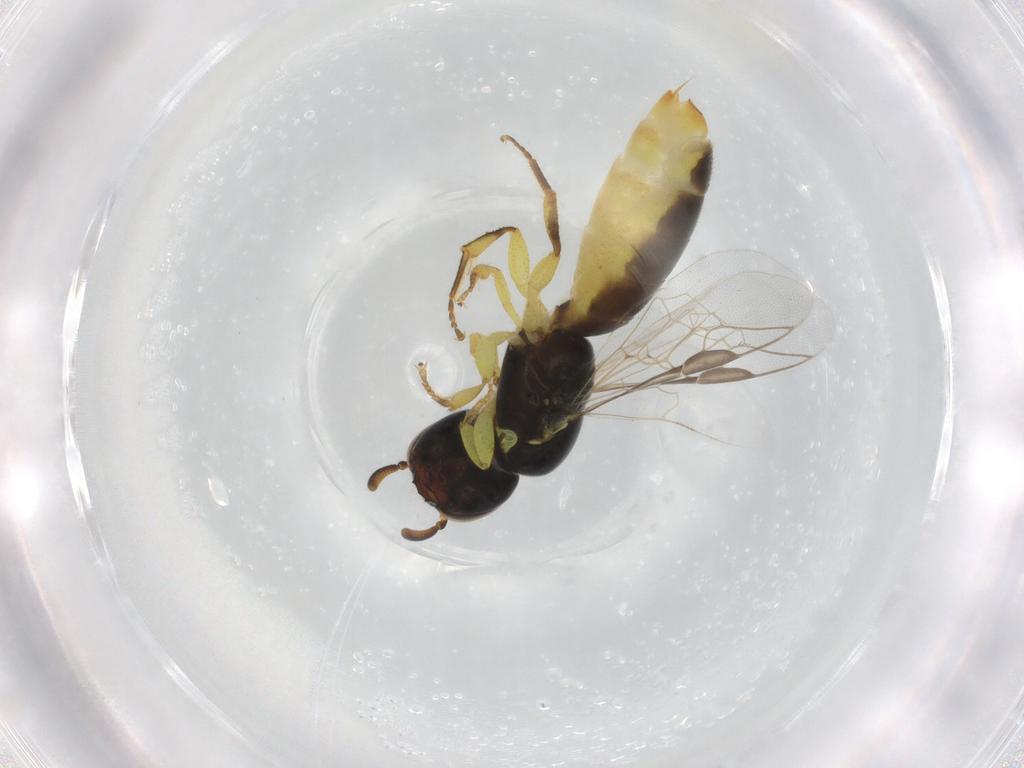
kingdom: Animalia
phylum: Arthropoda
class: Insecta
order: Hymenoptera
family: Colletidae
